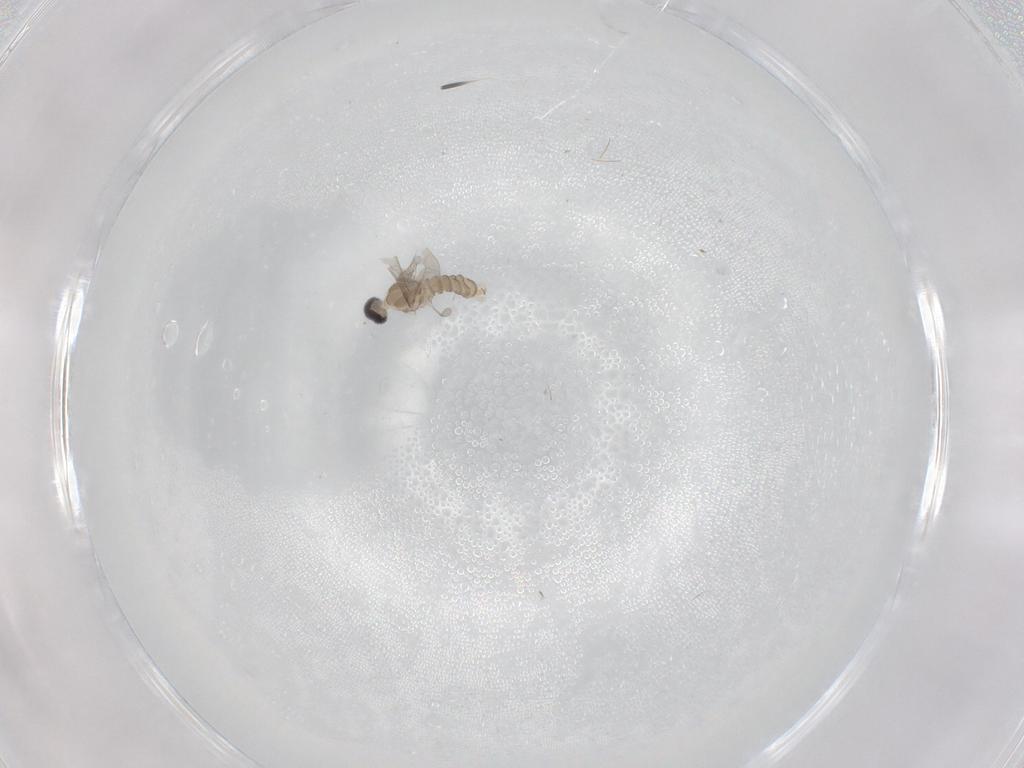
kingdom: Animalia
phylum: Arthropoda
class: Insecta
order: Diptera
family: Cecidomyiidae
